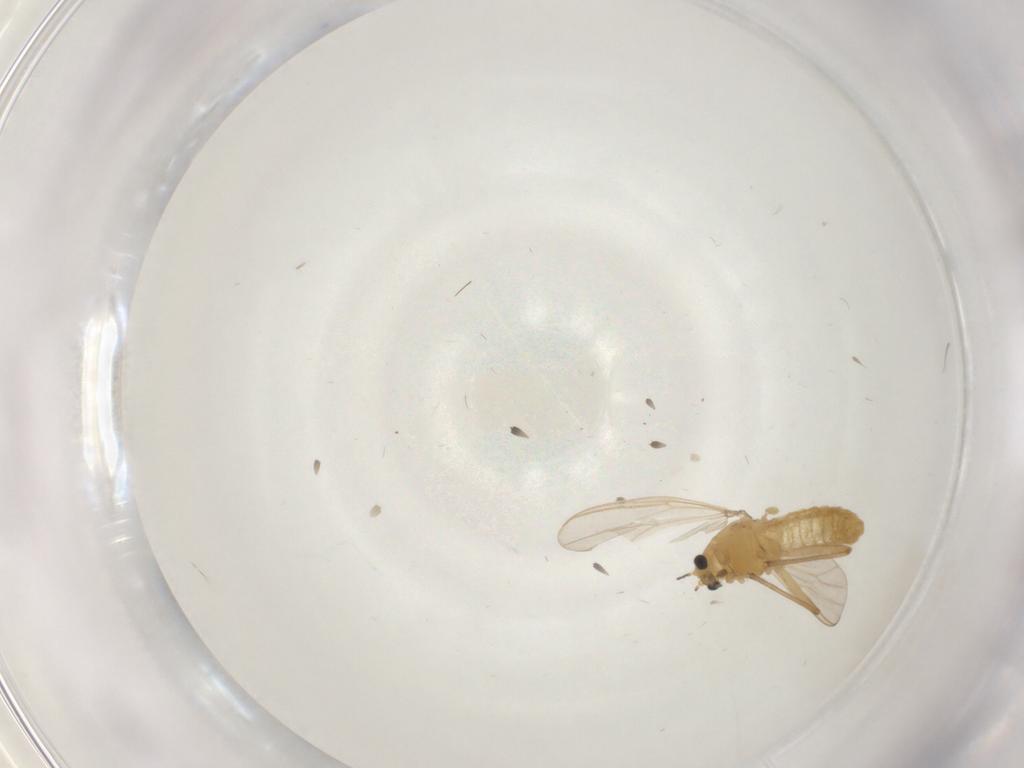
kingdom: Animalia
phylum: Arthropoda
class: Insecta
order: Diptera
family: Chironomidae
